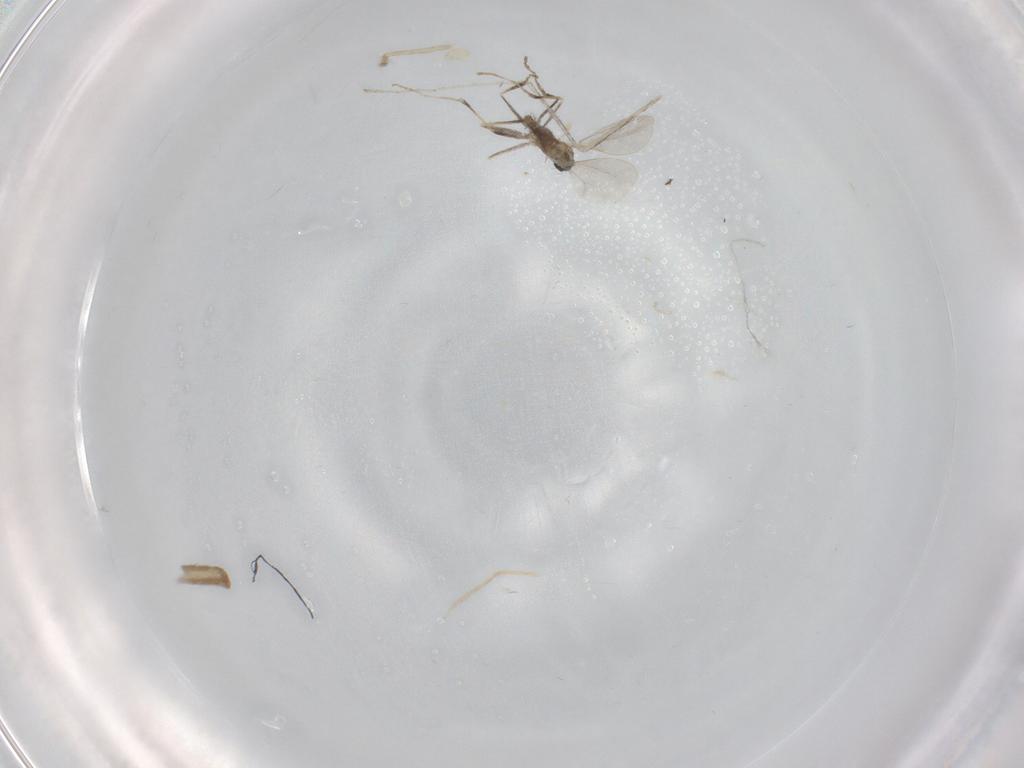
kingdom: Animalia
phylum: Arthropoda
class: Insecta
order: Diptera
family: Cecidomyiidae
